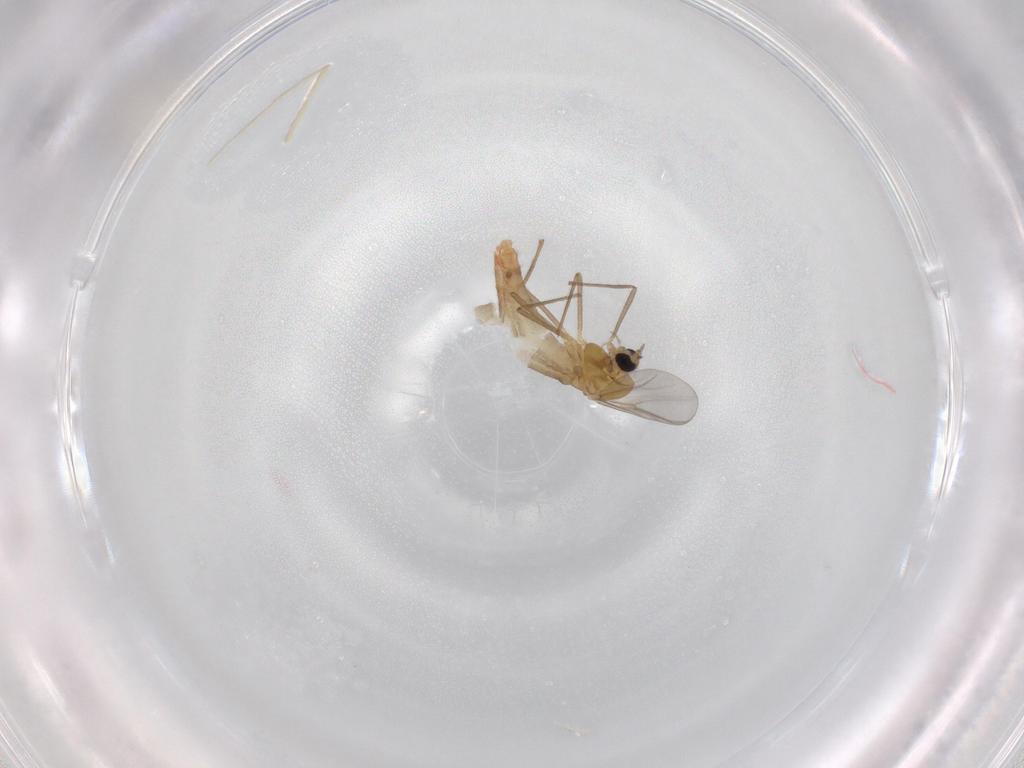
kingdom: Animalia
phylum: Arthropoda
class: Insecta
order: Diptera
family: Chironomidae
